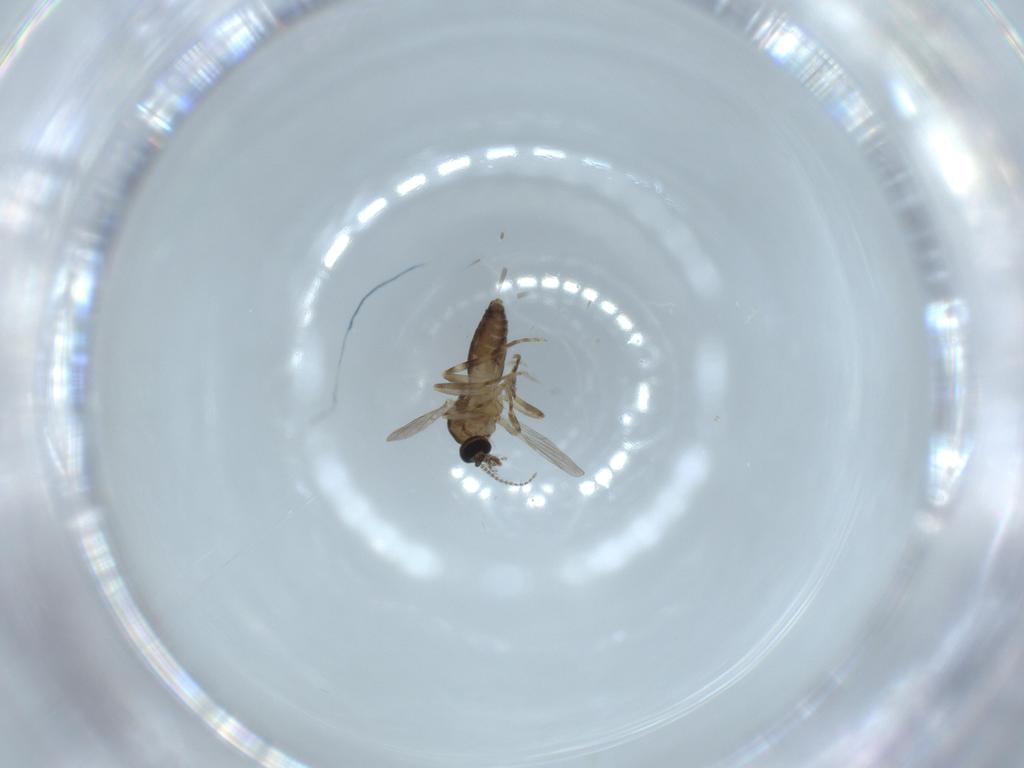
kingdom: Animalia
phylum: Arthropoda
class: Insecta
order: Diptera
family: Ceratopogonidae
